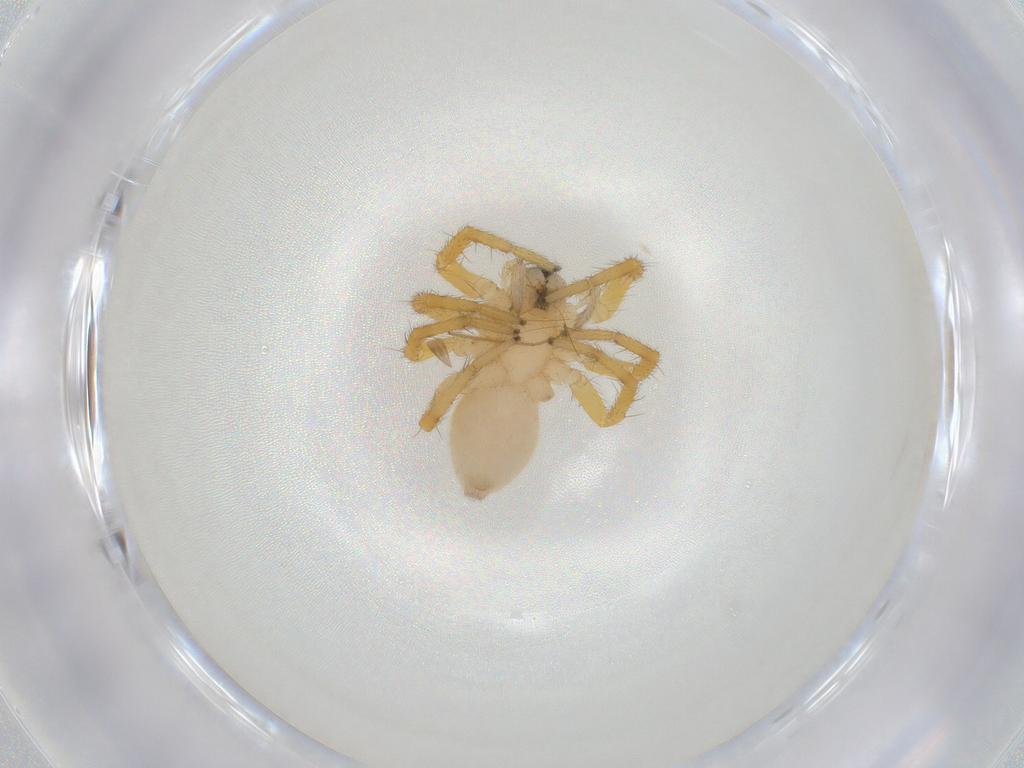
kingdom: Animalia
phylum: Arthropoda
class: Arachnida
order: Araneae
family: Corinnidae
